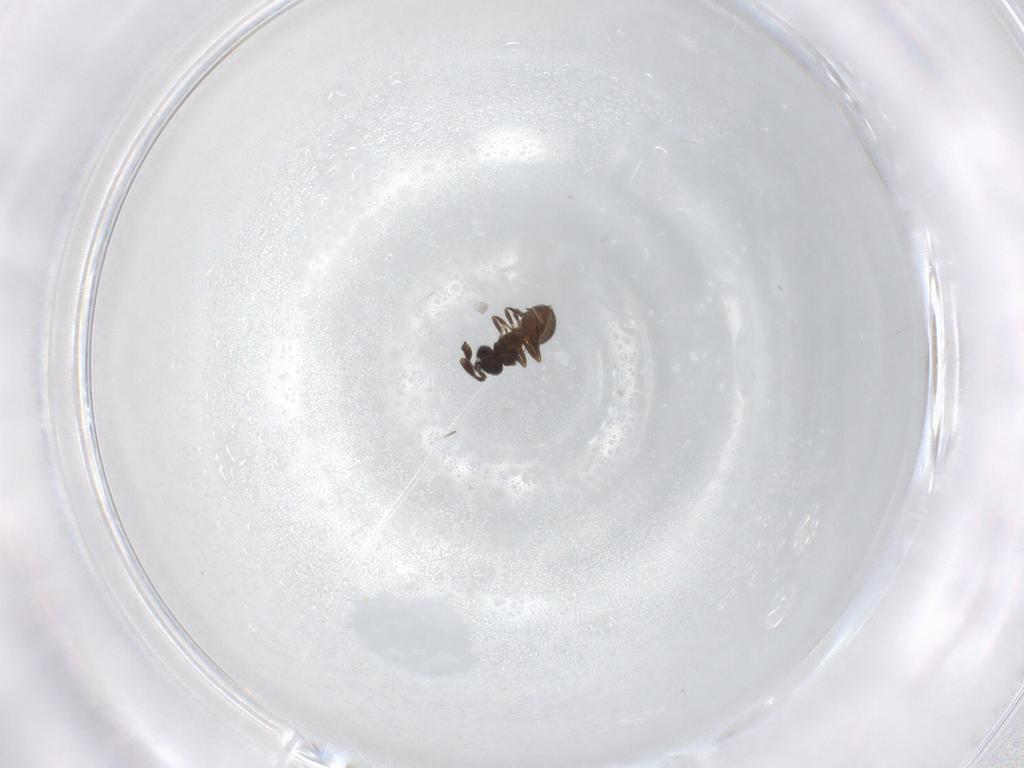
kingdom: Animalia
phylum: Arthropoda
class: Insecta
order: Hymenoptera
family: Scelionidae
